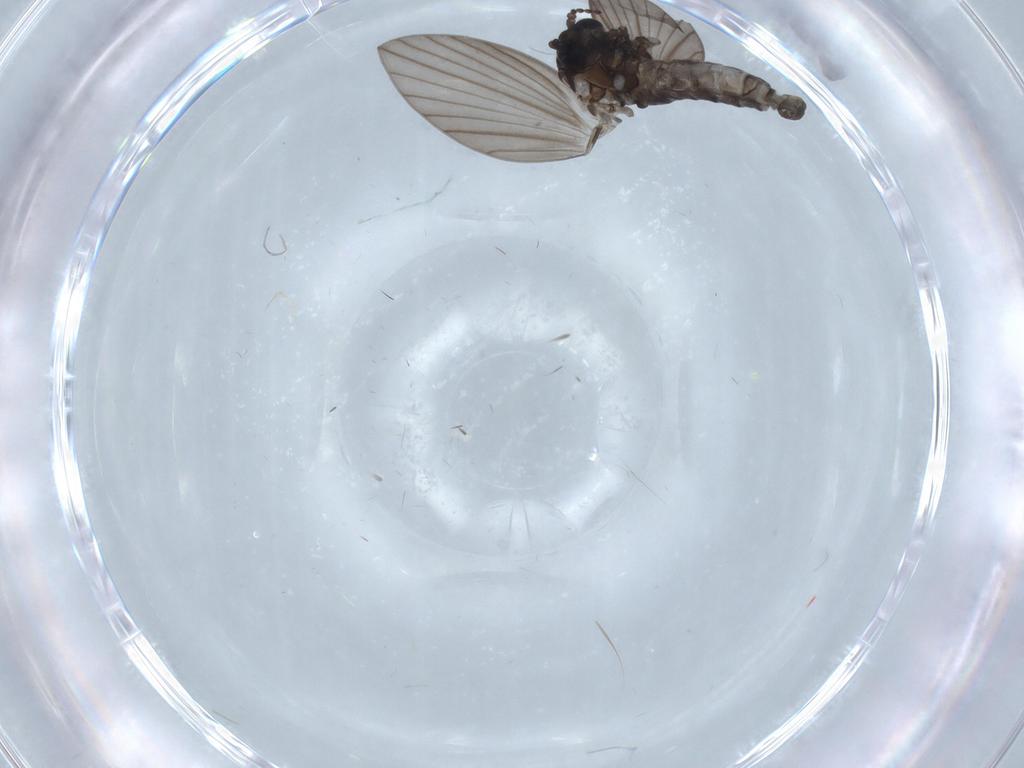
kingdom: Animalia
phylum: Arthropoda
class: Insecta
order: Diptera
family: Psychodidae
